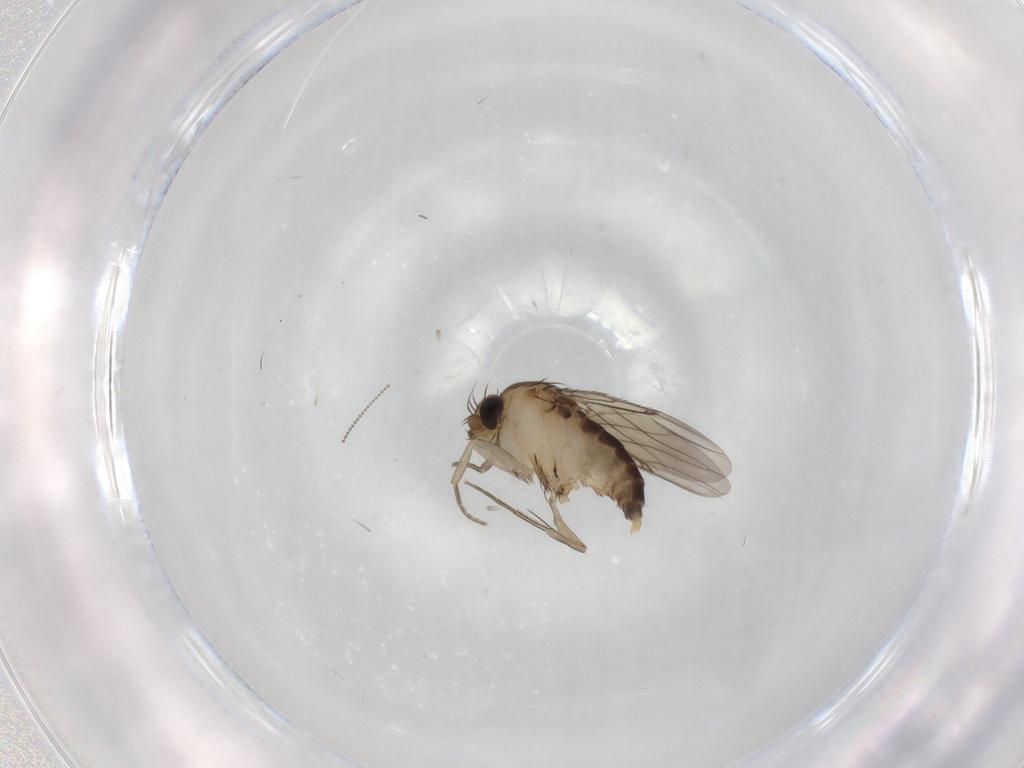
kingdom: Animalia
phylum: Arthropoda
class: Insecta
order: Diptera
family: Phoridae
